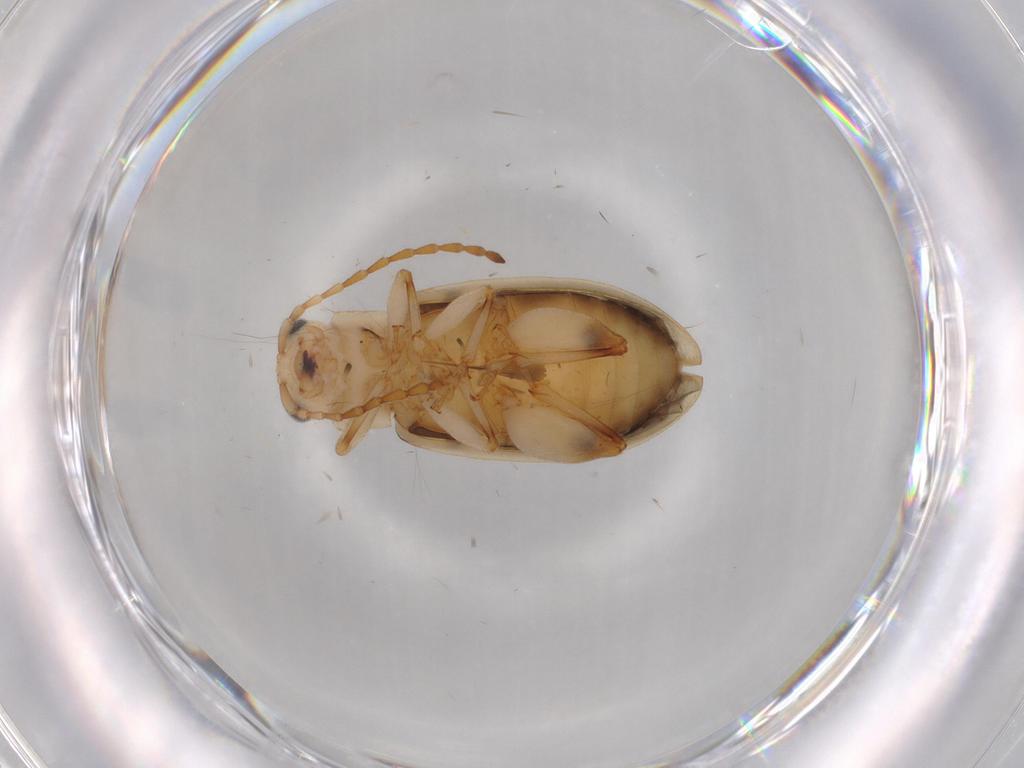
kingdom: Animalia
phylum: Arthropoda
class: Insecta
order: Coleoptera
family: Chrysomelidae
